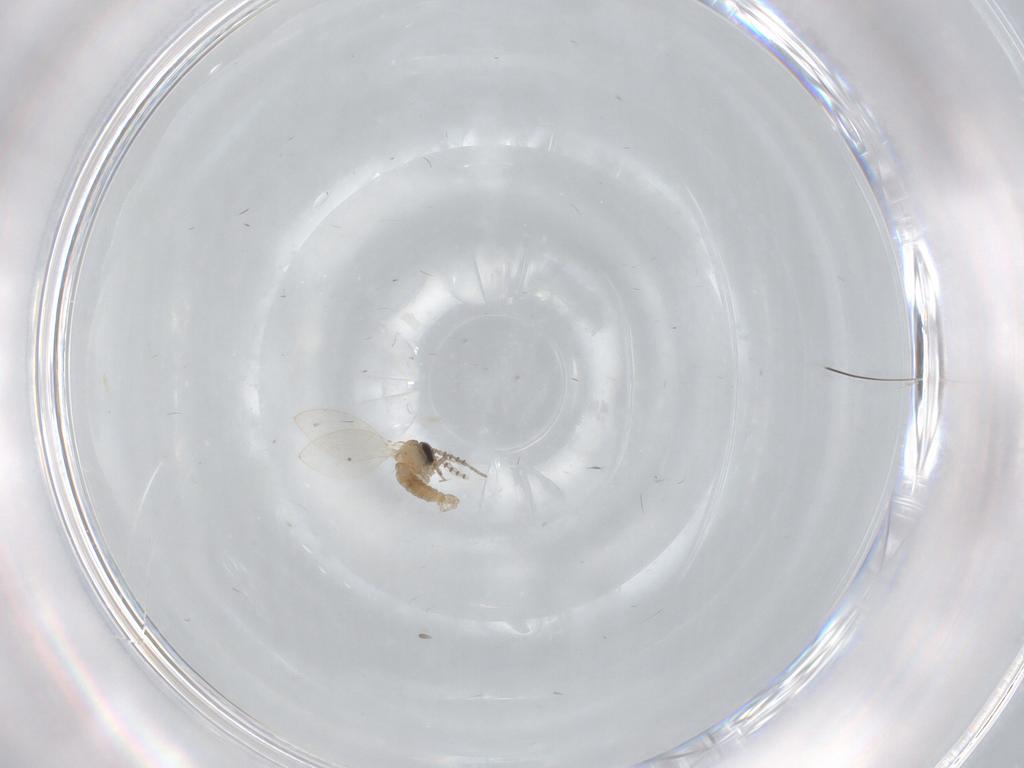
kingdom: Animalia
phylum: Arthropoda
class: Insecta
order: Diptera
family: Psychodidae
